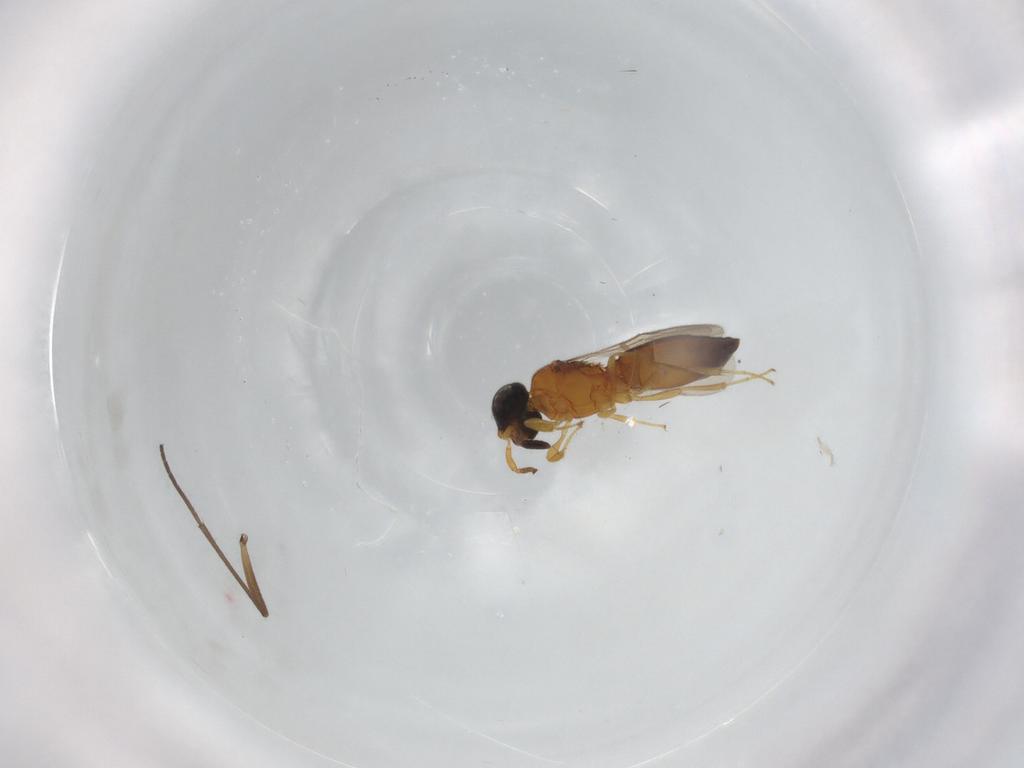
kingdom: Animalia
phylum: Arthropoda
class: Insecta
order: Hymenoptera
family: Scelionidae
